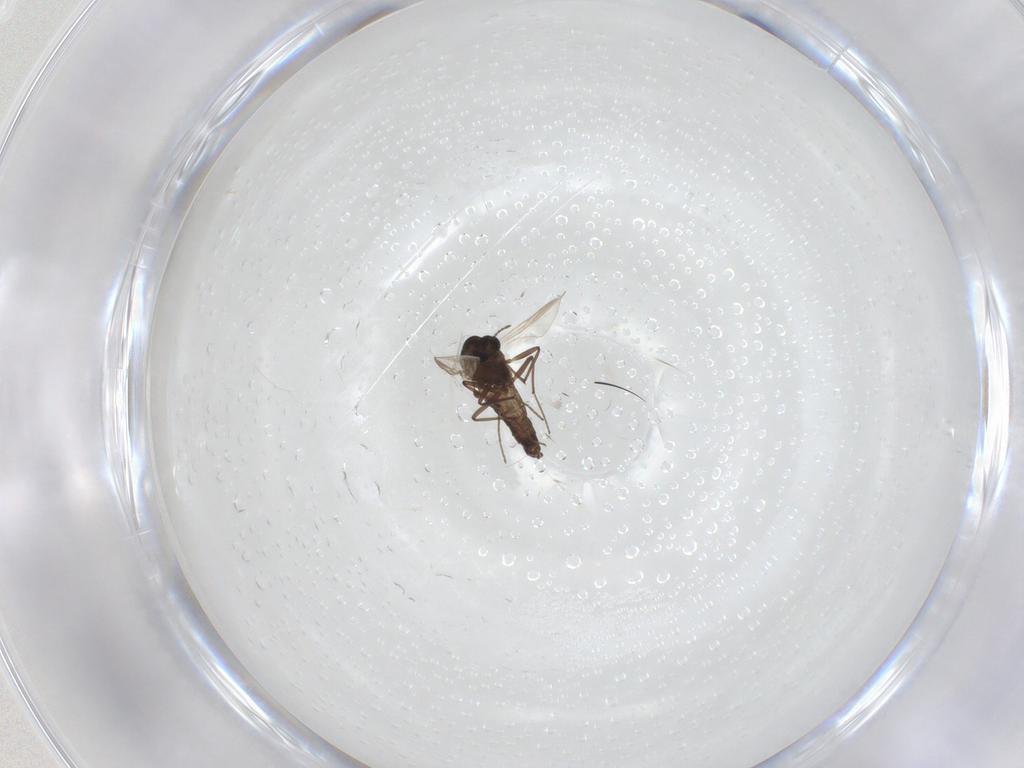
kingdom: Animalia
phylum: Arthropoda
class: Insecta
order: Diptera
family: Chironomidae
